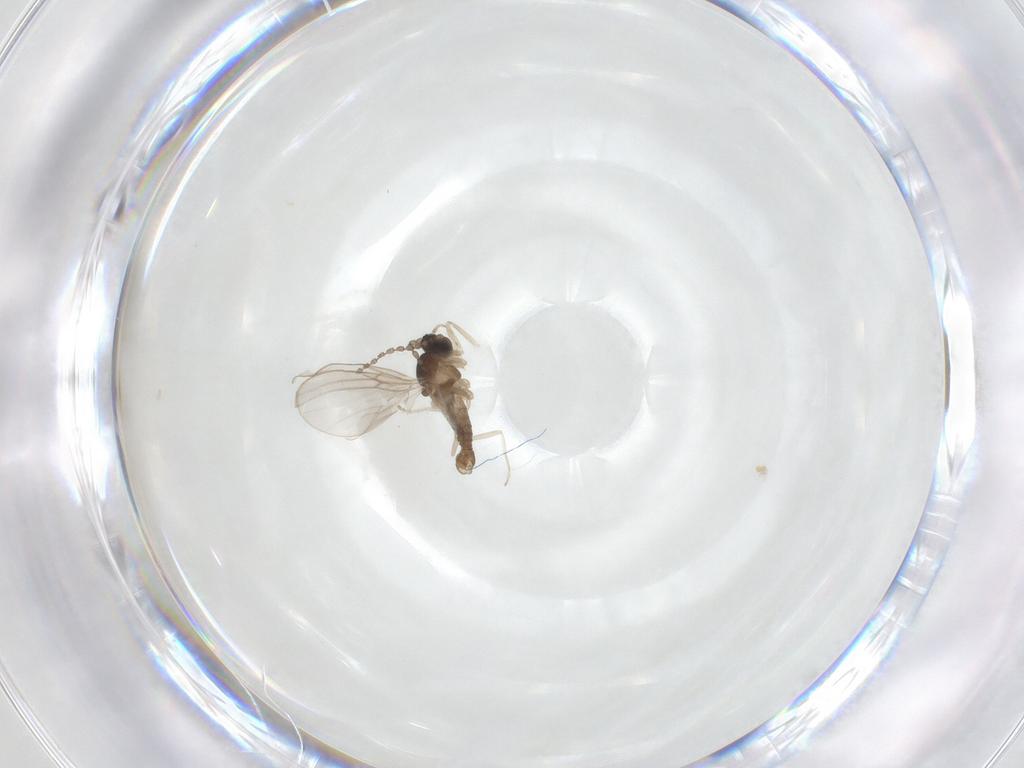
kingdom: Animalia
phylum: Arthropoda
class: Insecta
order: Diptera
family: Cecidomyiidae
